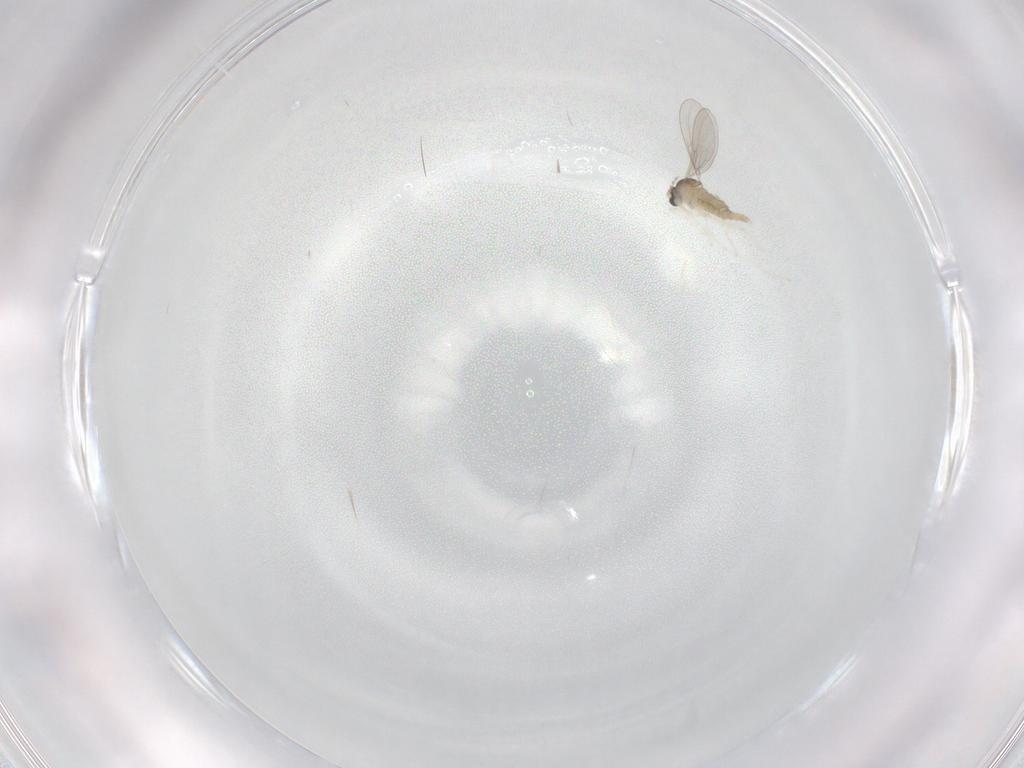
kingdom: Animalia
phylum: Arthropoda
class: Insecta
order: Diptera
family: Cecidomyiidae
